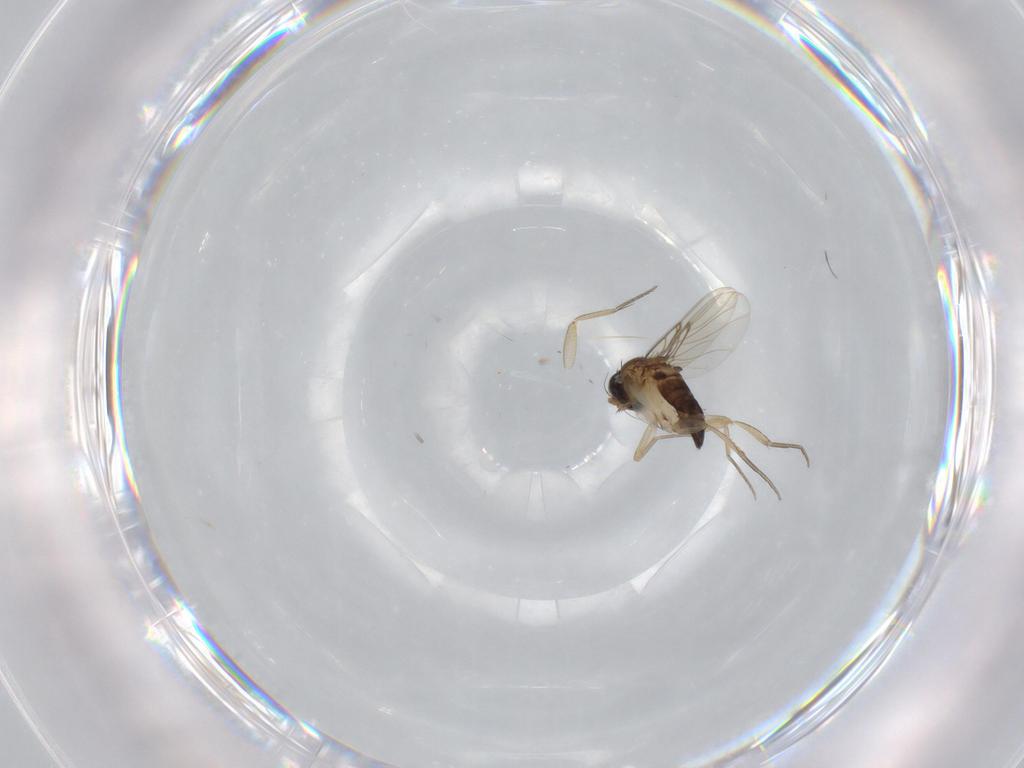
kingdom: Animalia
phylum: Arthropoda
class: Insecta
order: Diptera
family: Phoridae
